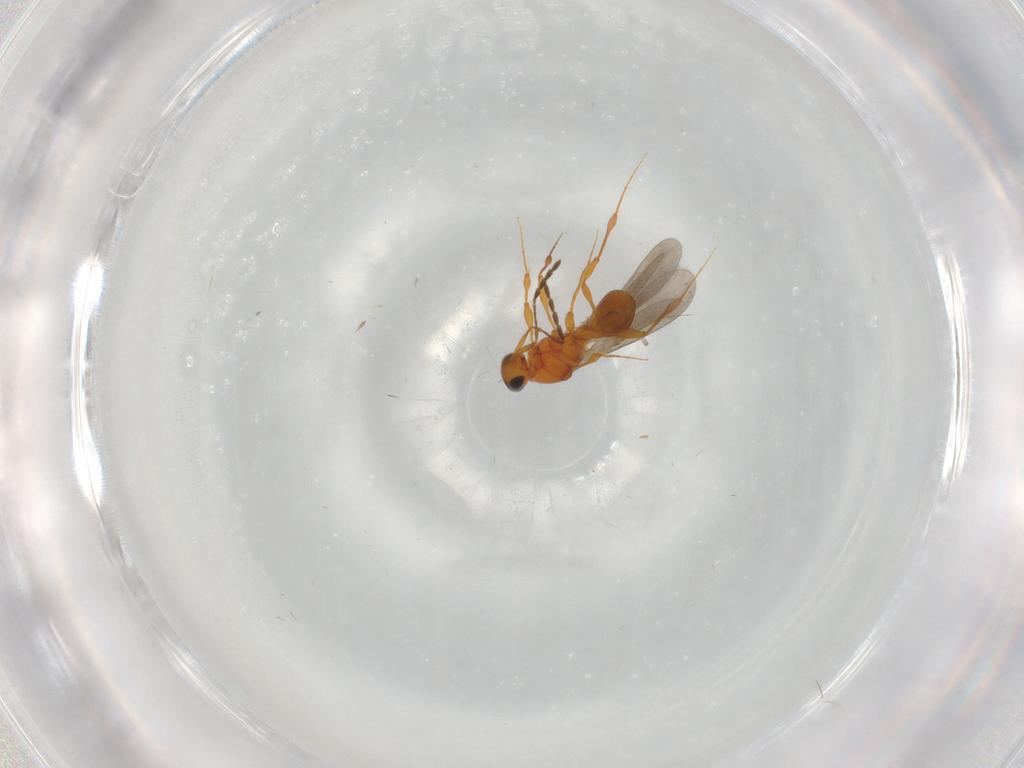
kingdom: Animalia
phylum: Arthropoda
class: Insecta
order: Hymenoptera
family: Platygastridae
